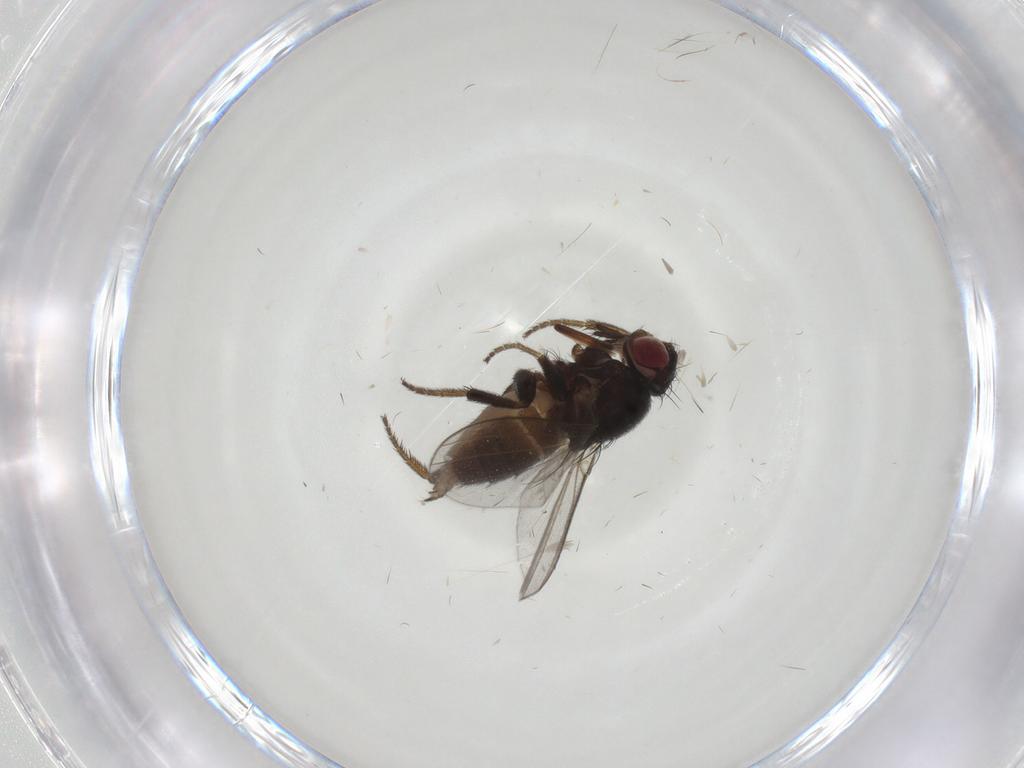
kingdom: Animalia
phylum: Arthropoda
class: Insecta
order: Diptera
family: Milichiidae
